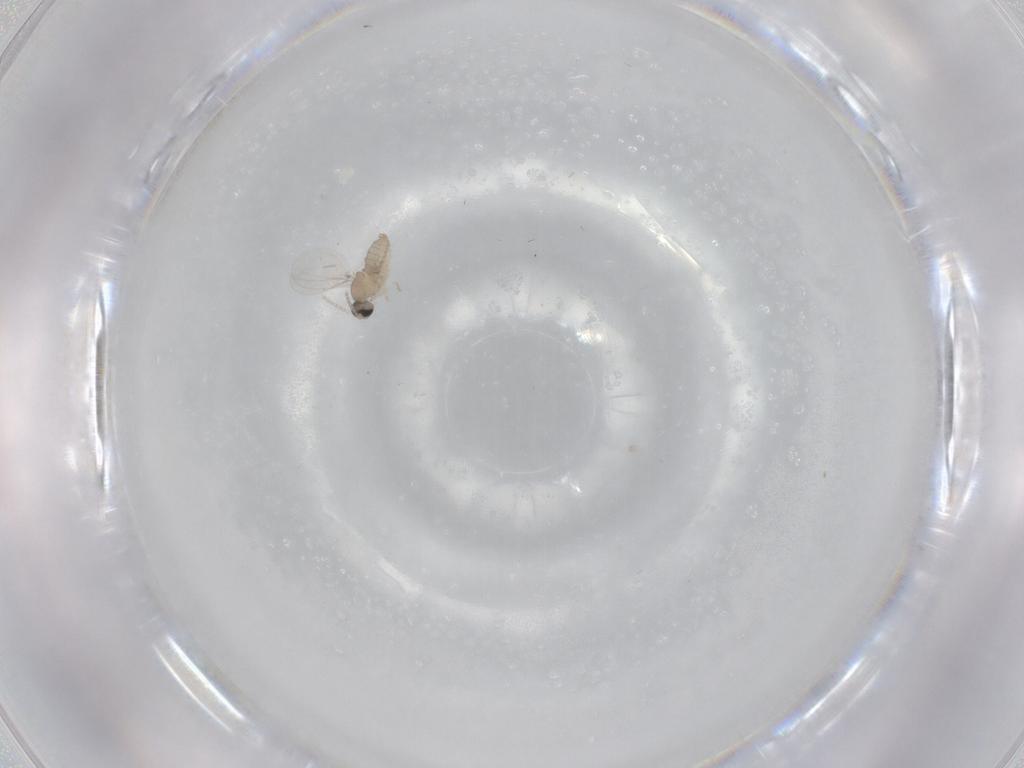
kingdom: Animalia
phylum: Arthropoda
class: Insecta
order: Diptera
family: Cecidomyiidae
